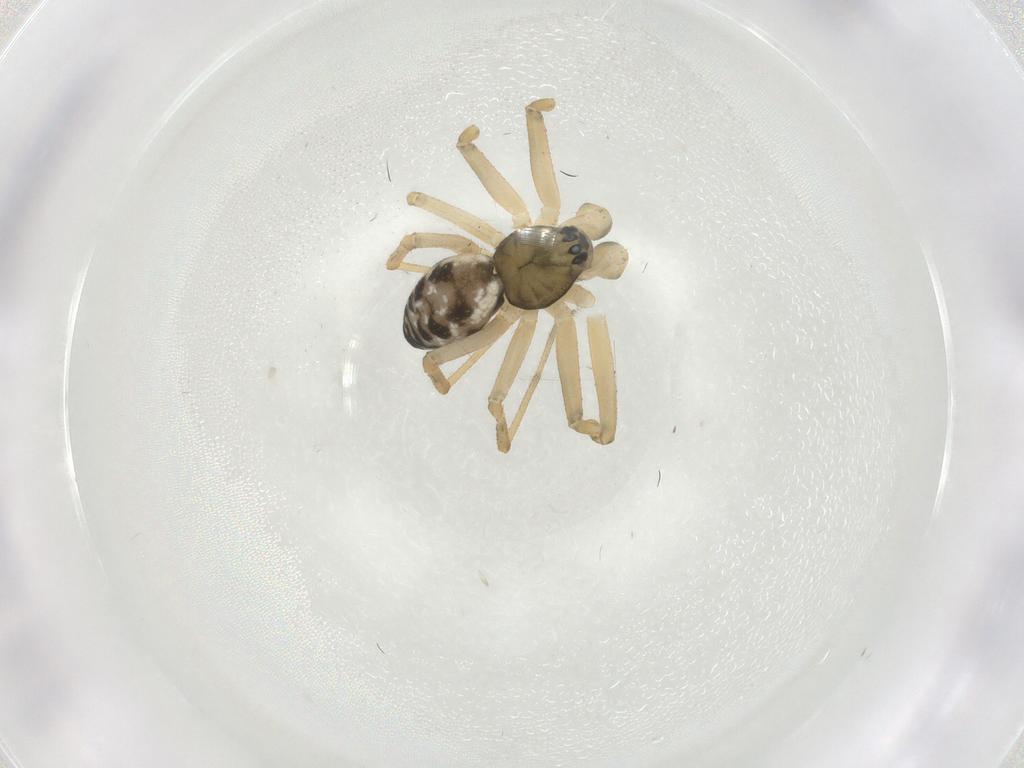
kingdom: Animalia
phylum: Arthropoda
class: Arachnida
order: Araneae
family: Linyphiidae
